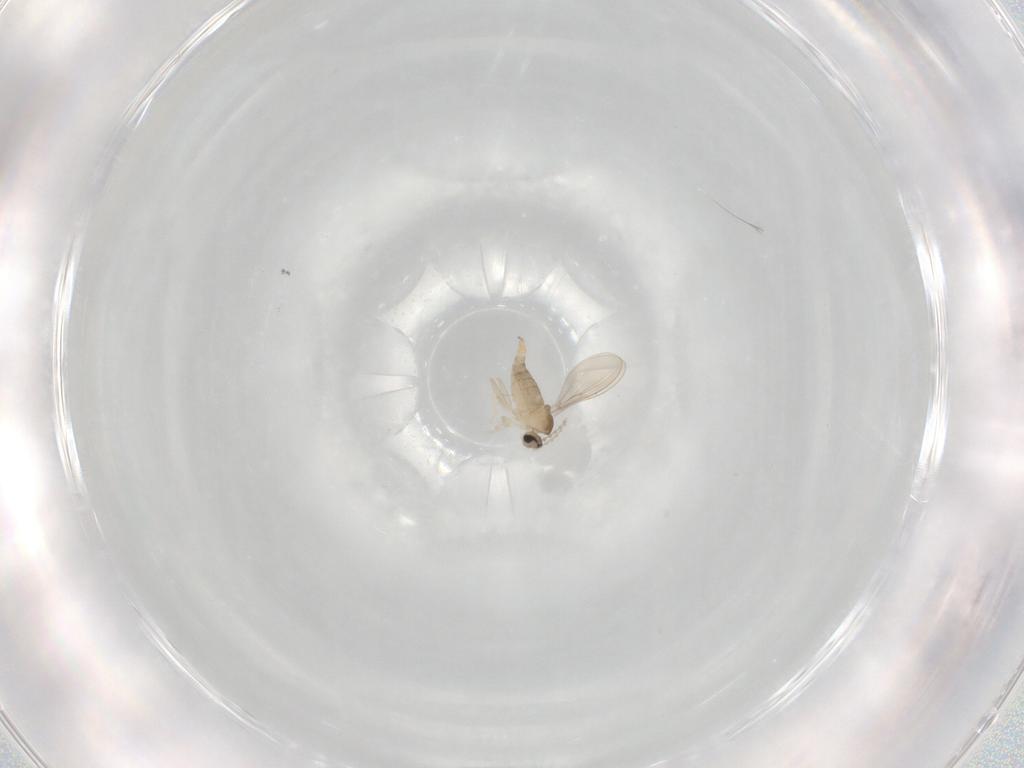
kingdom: Animalia
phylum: Arthropoda
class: Insecta
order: Diptera
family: Cecidomyiidae
